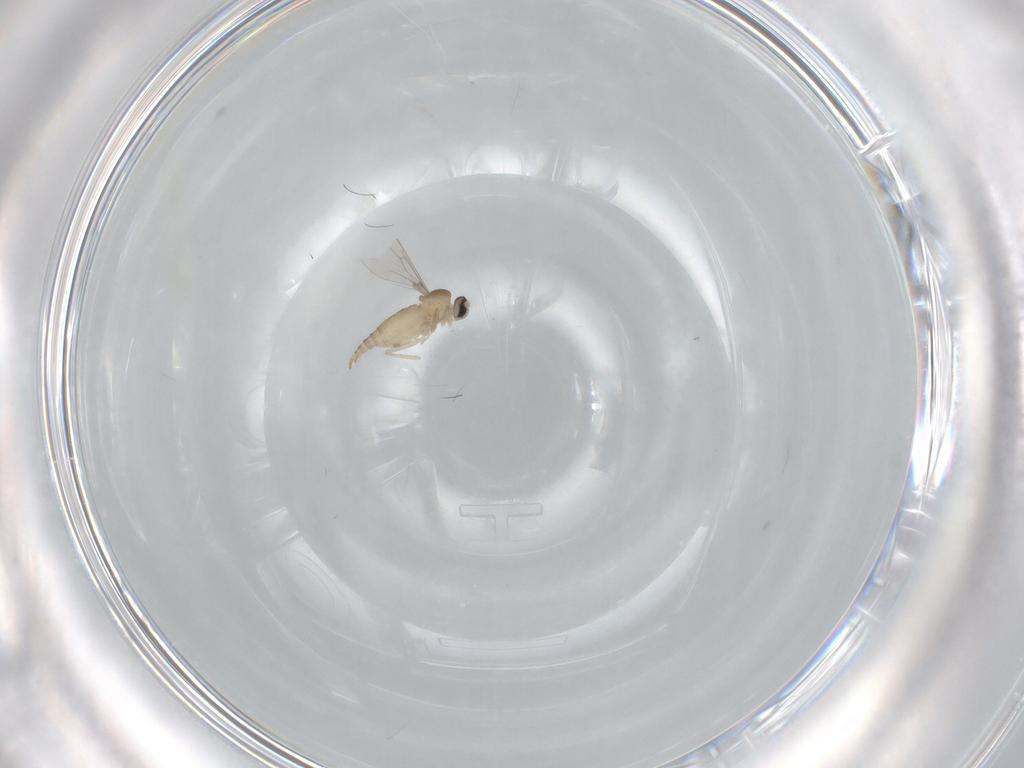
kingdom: Animalia
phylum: Arthropoda
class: Insecta
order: Diptera
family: Cecidomyiidae
